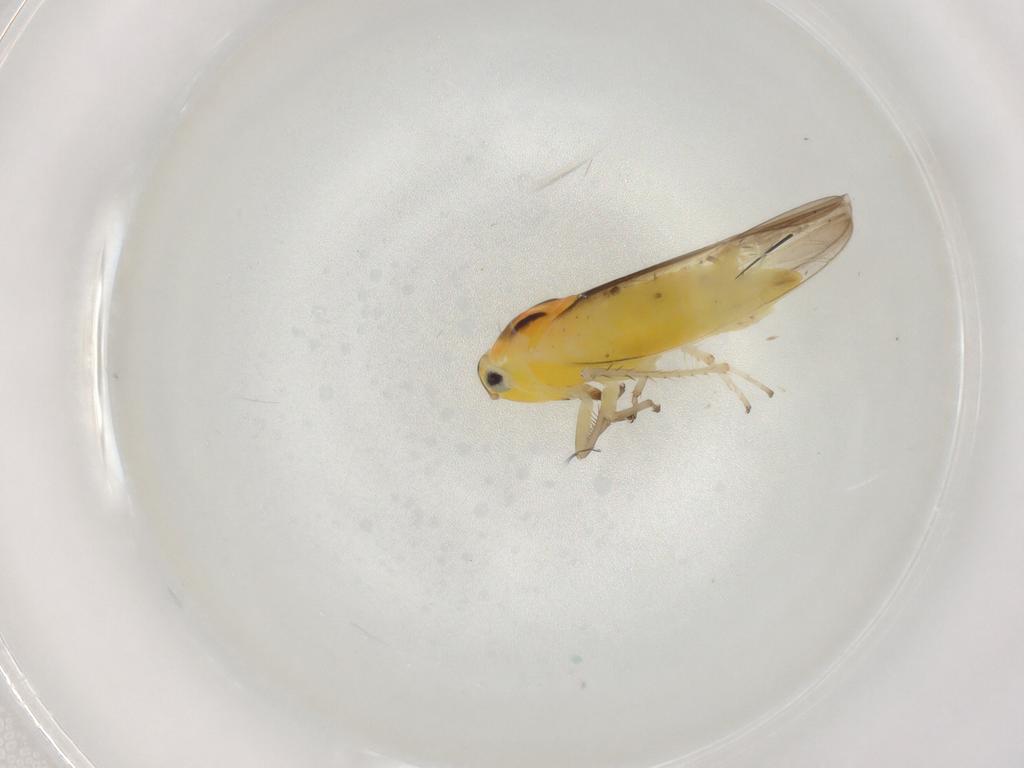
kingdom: Animalia
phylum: Arthropoda
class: Insecta
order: Hemiptera
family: Cicadellidae
